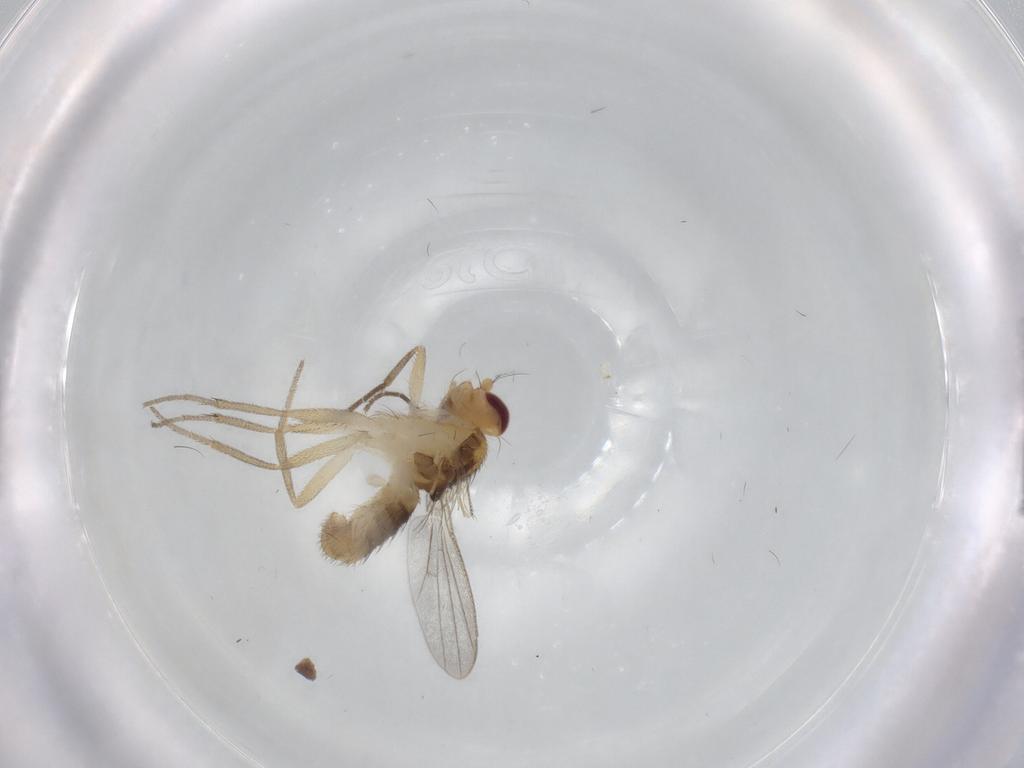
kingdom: Animalia
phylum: Arthropoda
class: Insecta
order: Diptera
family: Clusiidae
